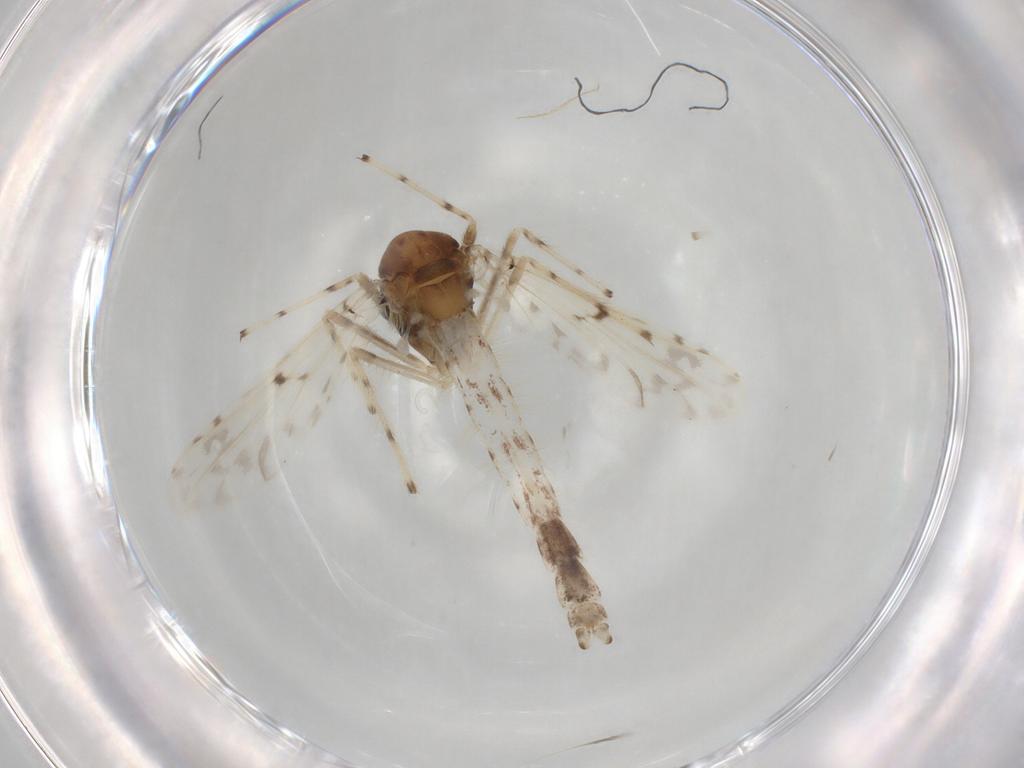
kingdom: Animalia
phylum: Arthropoda
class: Insecta
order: Diptera
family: Chironomidae
